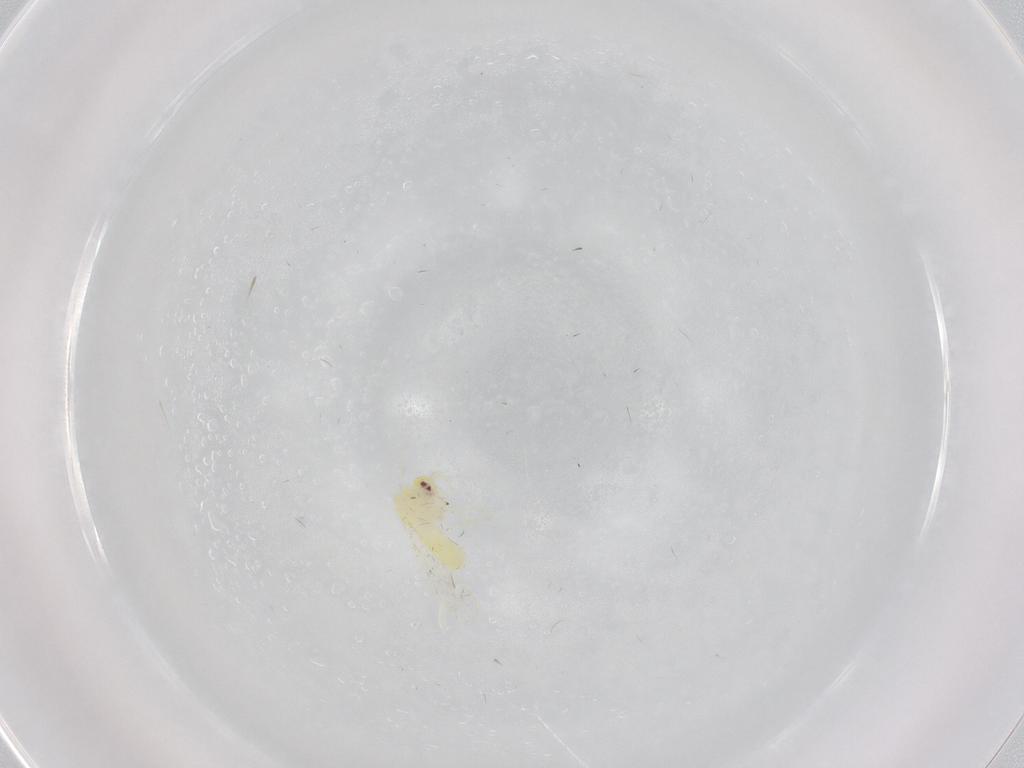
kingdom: Animalia
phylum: Arthropoda
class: Insecta
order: Hemiptera
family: Aleyrodidae
